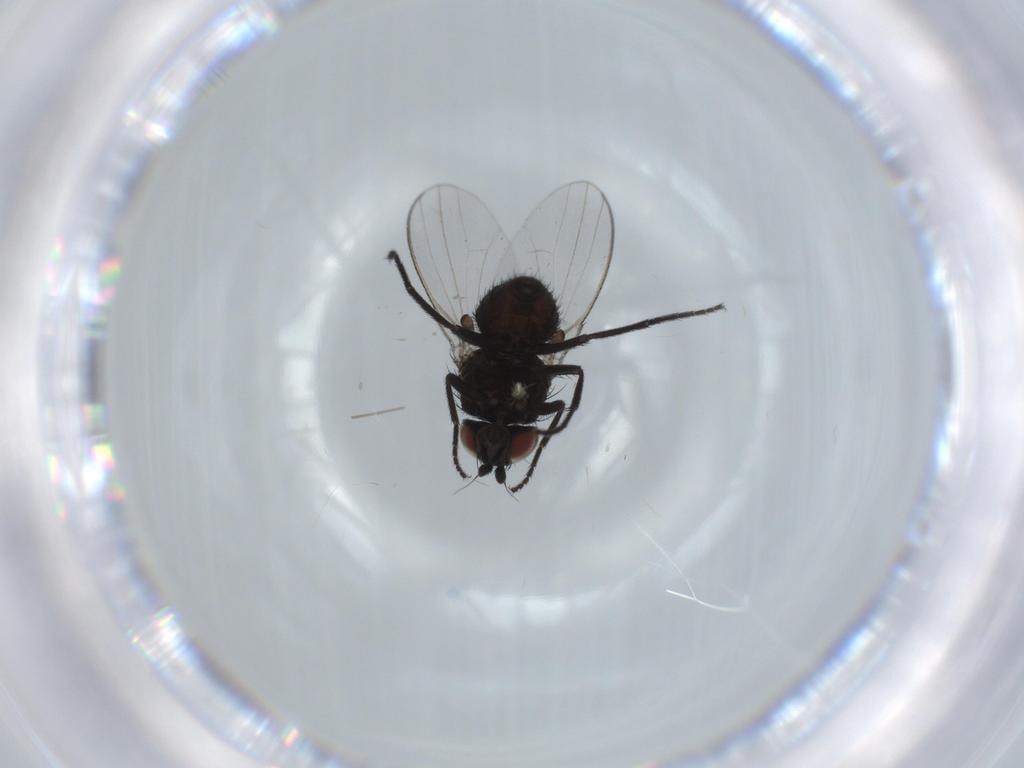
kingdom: Animalia
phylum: Arthropoda
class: Insecta
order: Diptera
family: Milichiidae
